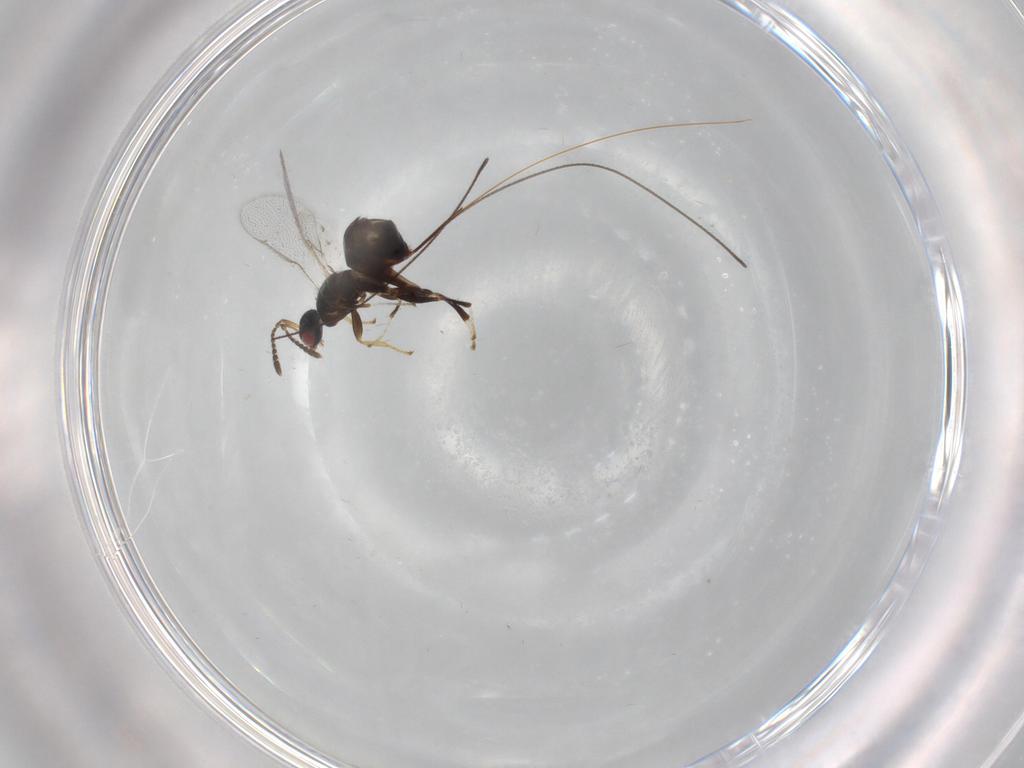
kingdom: Animalia
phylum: Arthropoda
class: Insecta
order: Hymenoptera
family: Torymidae
